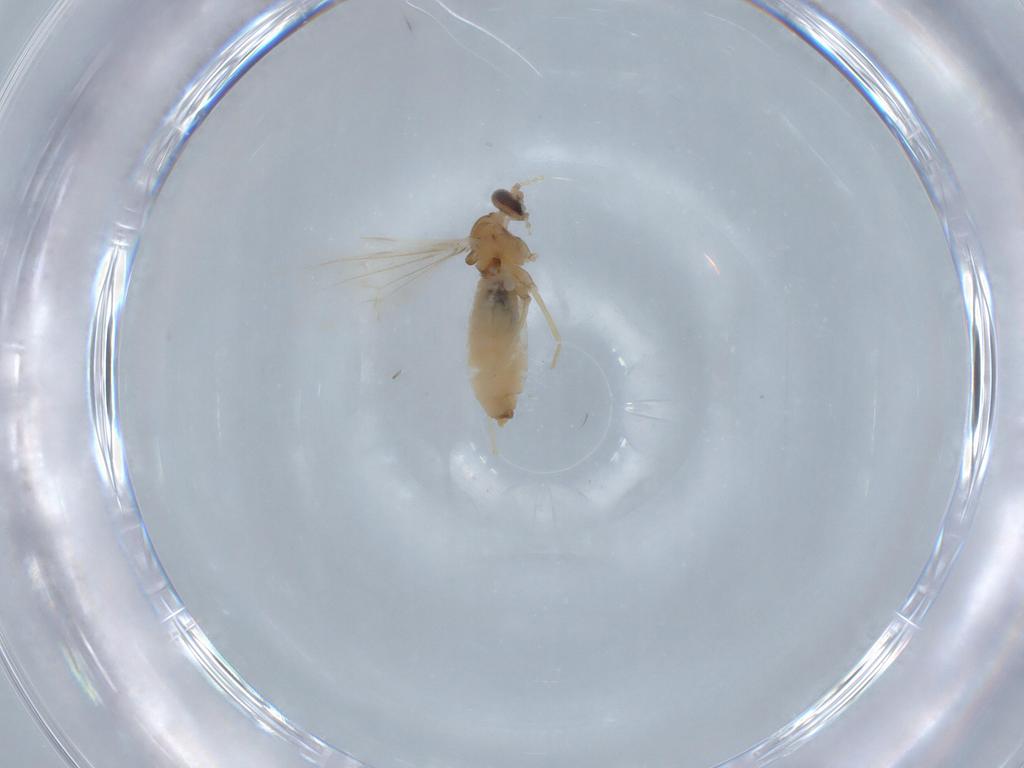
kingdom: Animalia
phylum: Arthropoda
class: Insecta
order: Diptera
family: Cecidomyiidae
